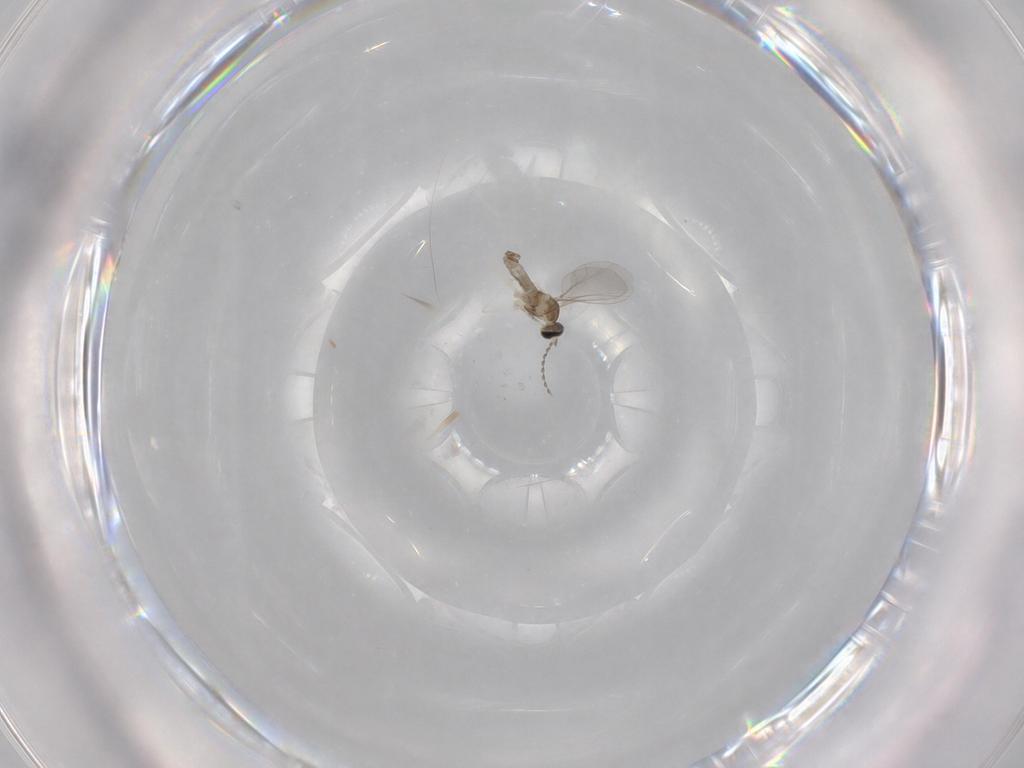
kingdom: Animalia
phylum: Arthropoda
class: Insecta
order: Diptera
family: Cecidomyiidae
